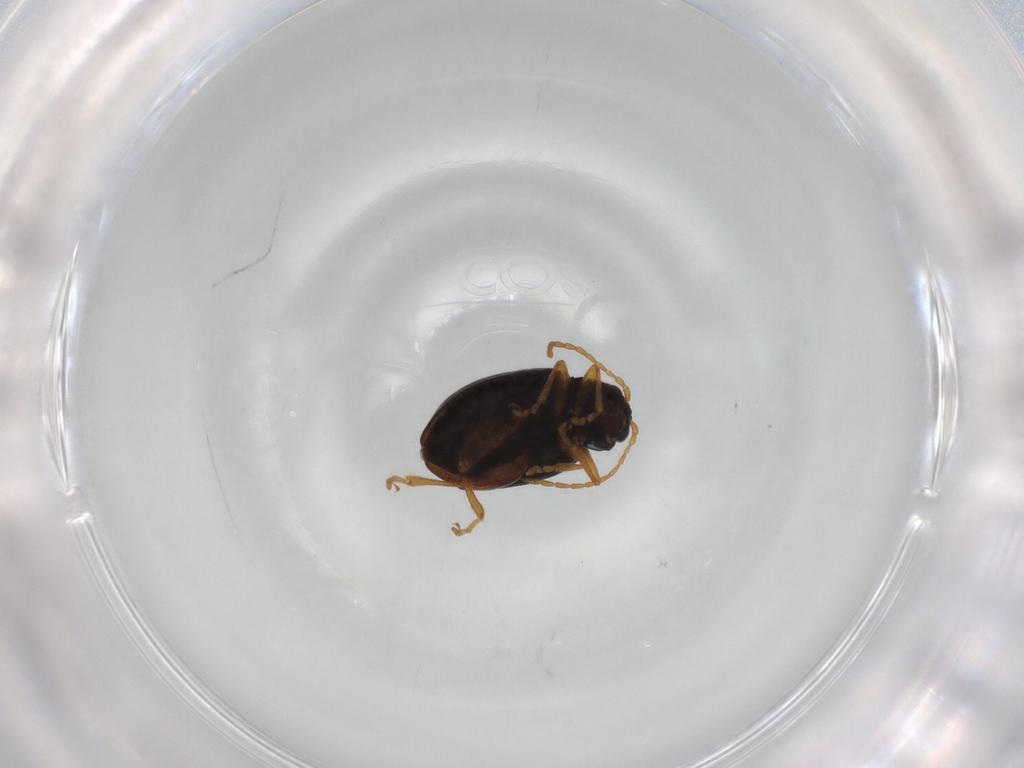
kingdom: Animalia
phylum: Arthropoda
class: Insecta
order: Coleoptera
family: Chrysomelidae
